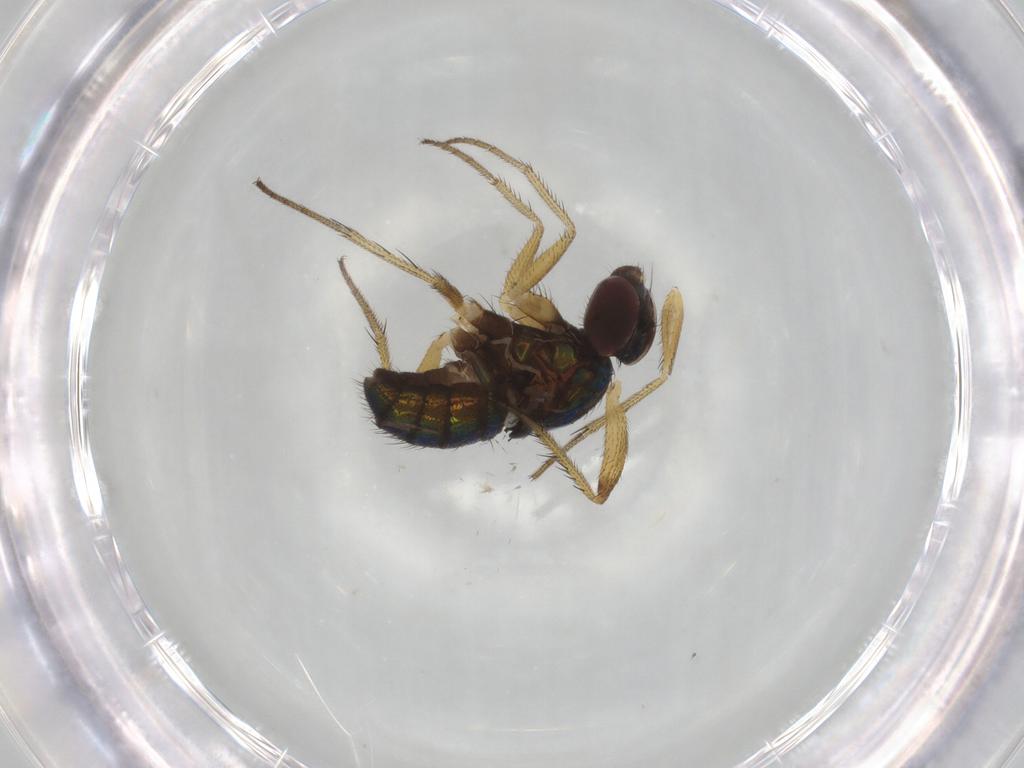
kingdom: Animalia
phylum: Arthropoda
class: Insecta
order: Diptera
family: Dolichopodidae
